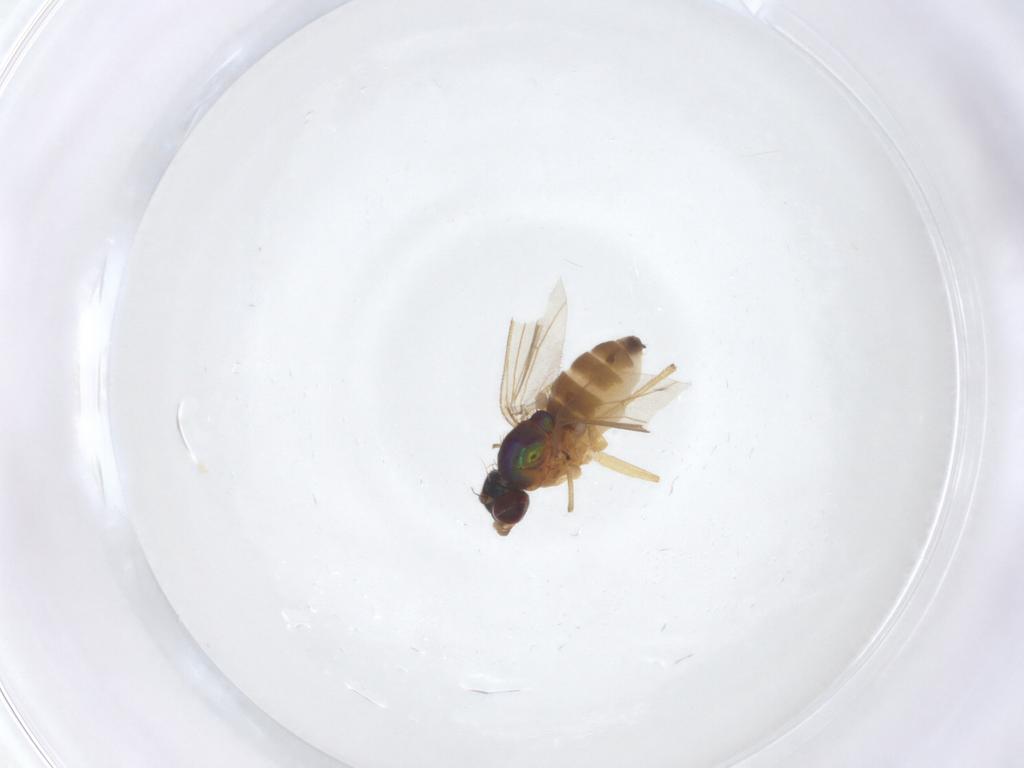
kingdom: Animalia
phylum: Arthropoda
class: Insecta
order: Diptera
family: Dolichopodidae
